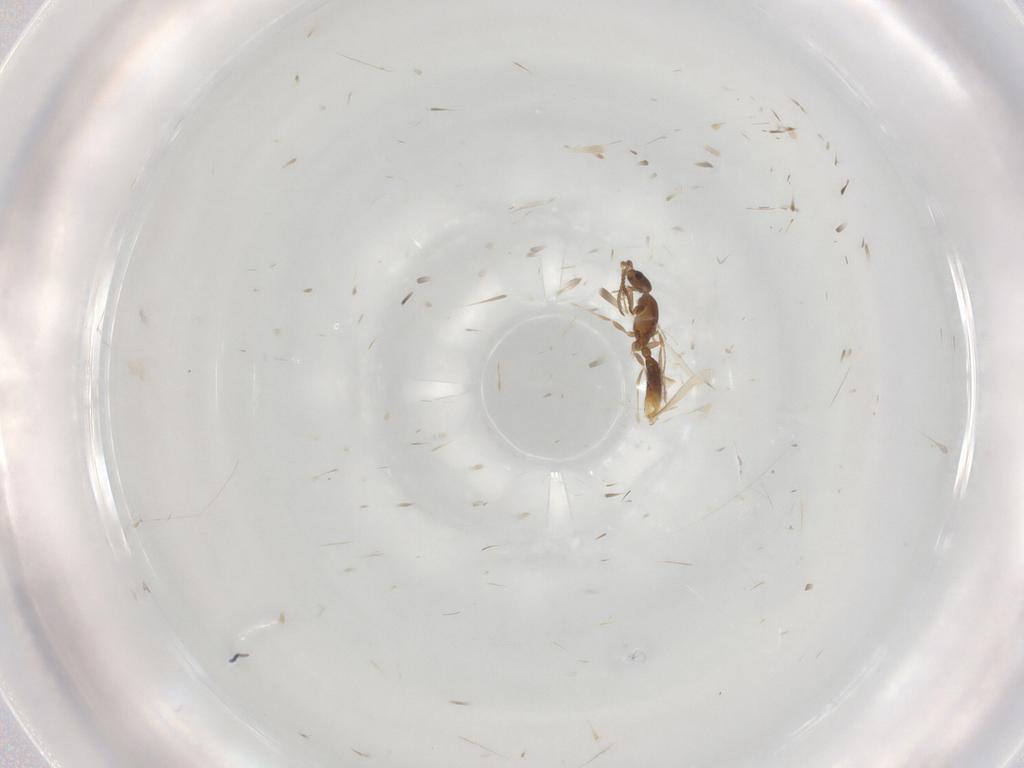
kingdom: Animalia
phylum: Arthropoda
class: Insecta
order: Hymenoptera
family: Formicidae
